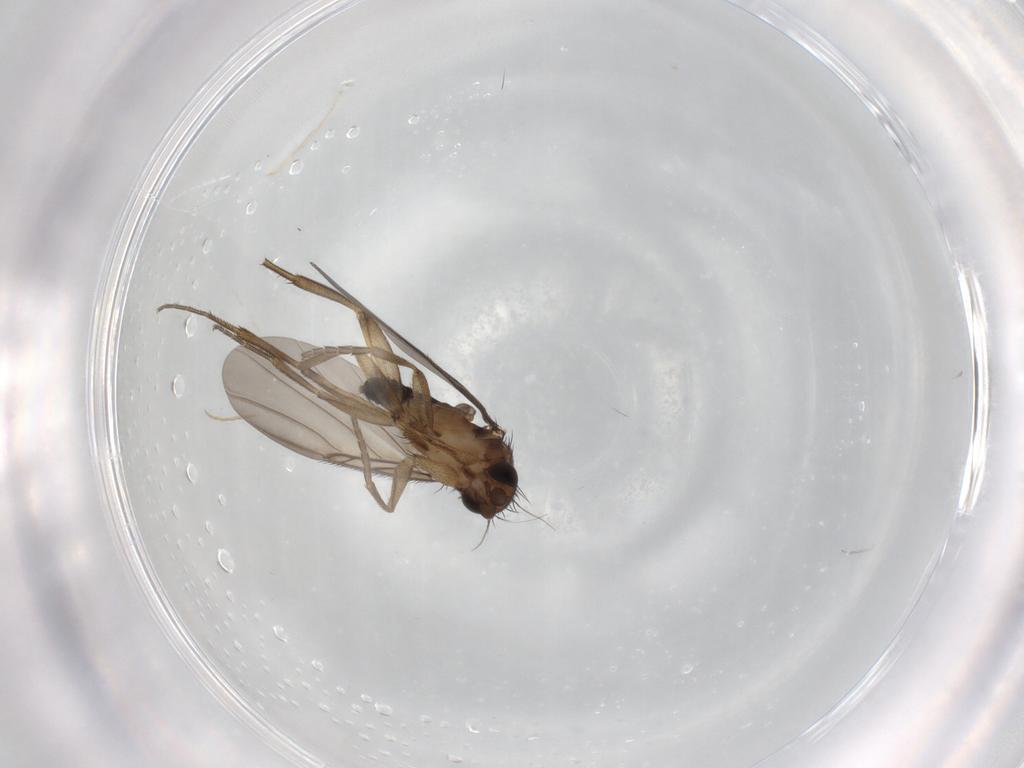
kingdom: Animalia
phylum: Arthropoda
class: Insecta
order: Diptera
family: Phoridae
